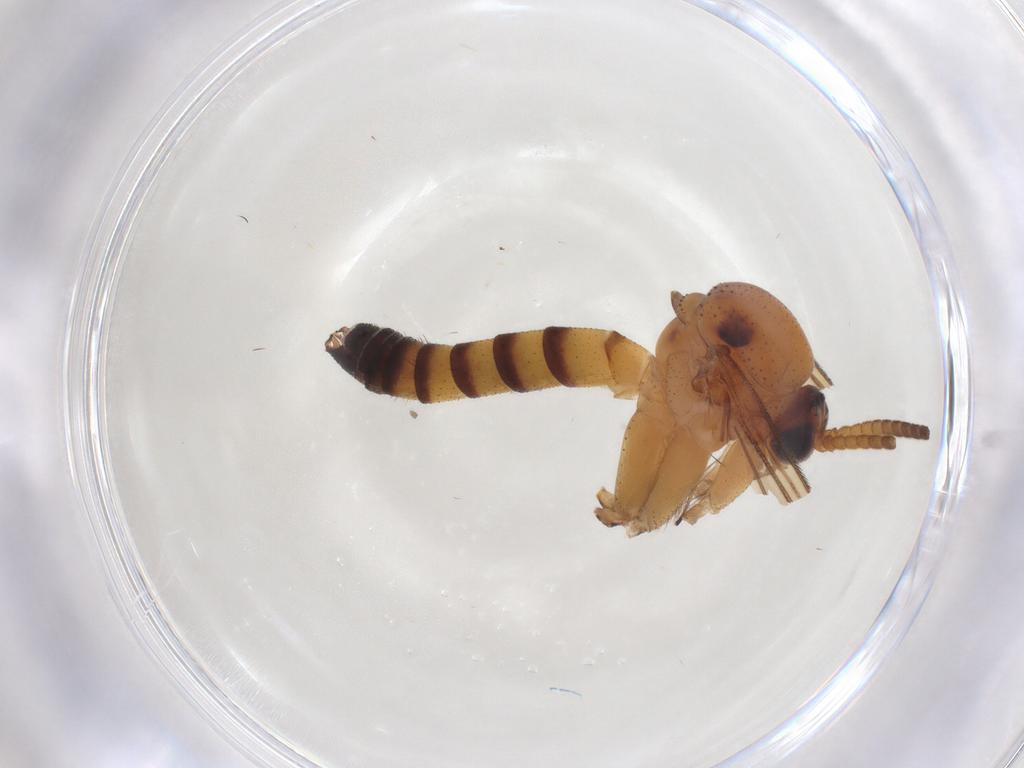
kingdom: Animalia
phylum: Arthropoda
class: Insecta
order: Diptera
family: Mycetophilidae
